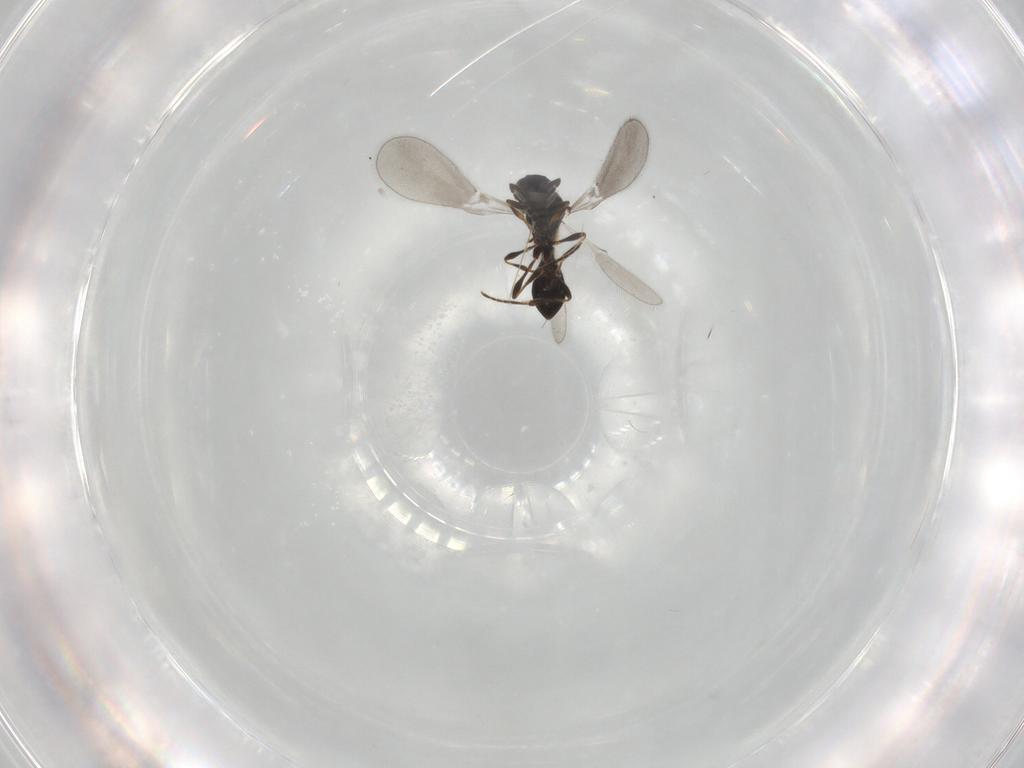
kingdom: Animalia
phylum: Arthropoda
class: Insecta
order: Hymenoptera
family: Platygastridae
